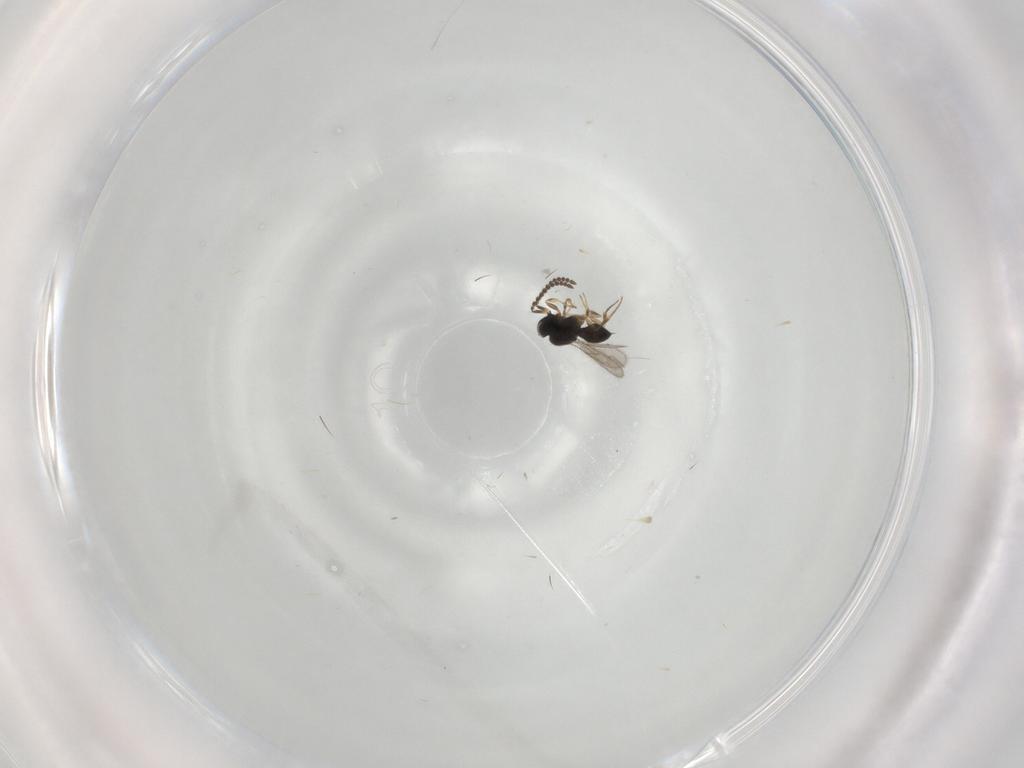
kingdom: Animalia
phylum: Arthropoda
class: Insecta
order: Hymenoptera
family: Scelionidae
